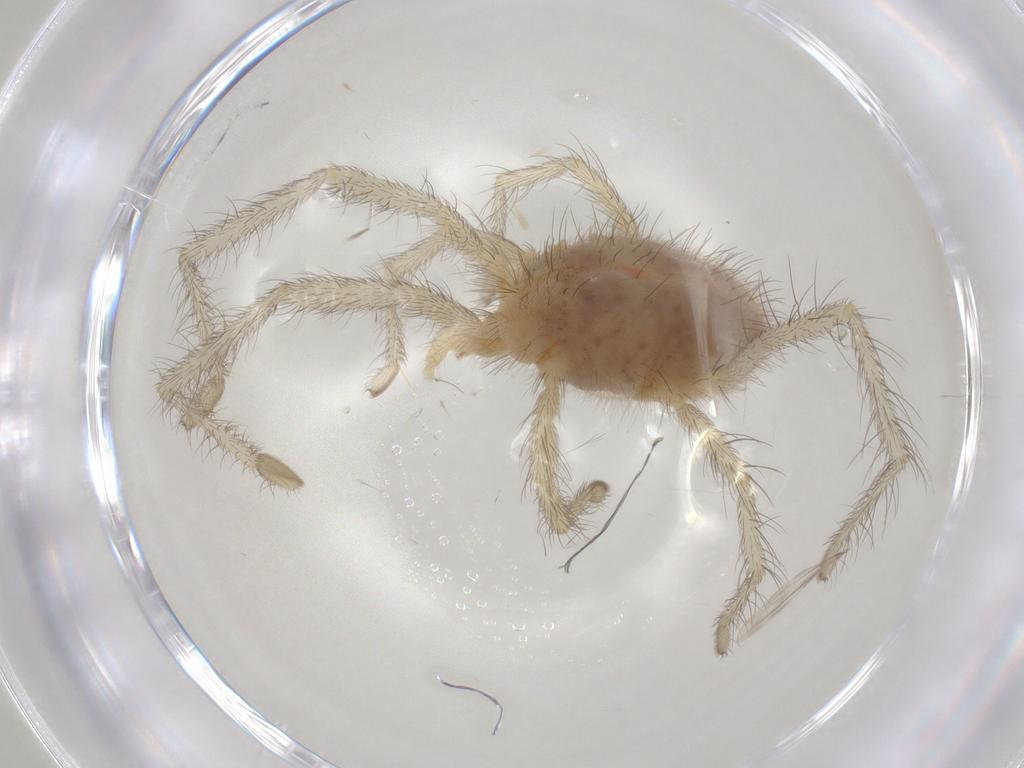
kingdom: Animalia
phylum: Arthropoda
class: Arachnida
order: Trombidiformes
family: Erythraeidae
